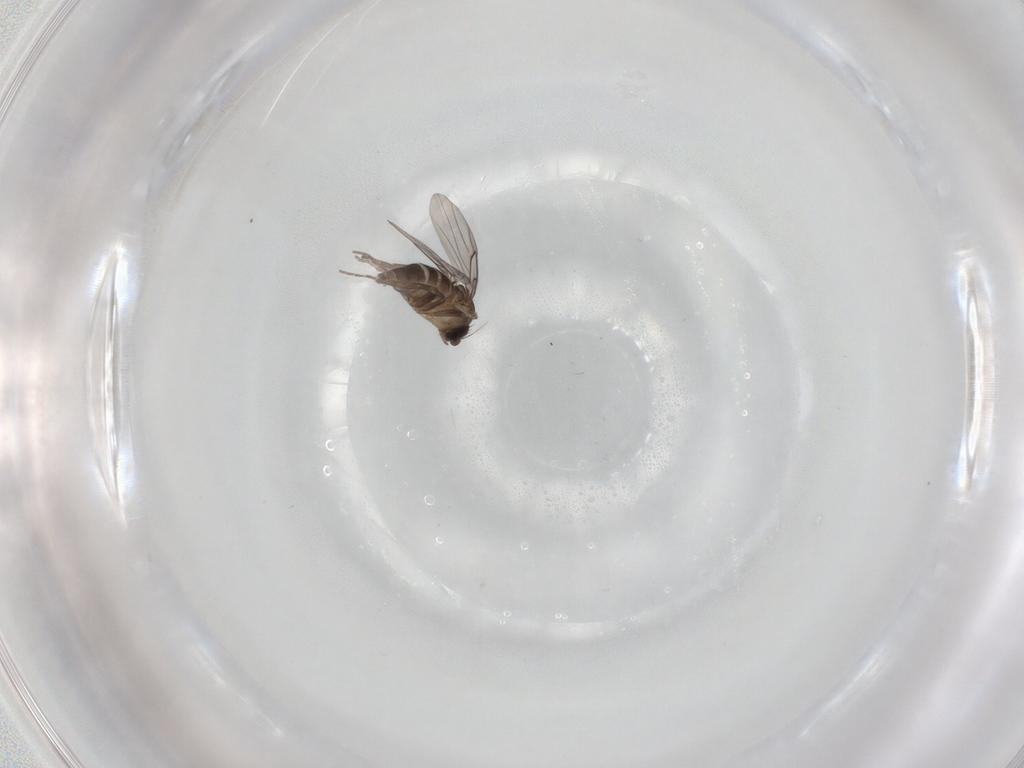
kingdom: Animalia
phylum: Arthropoda
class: Insecta
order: Diptera
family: Phoridae
